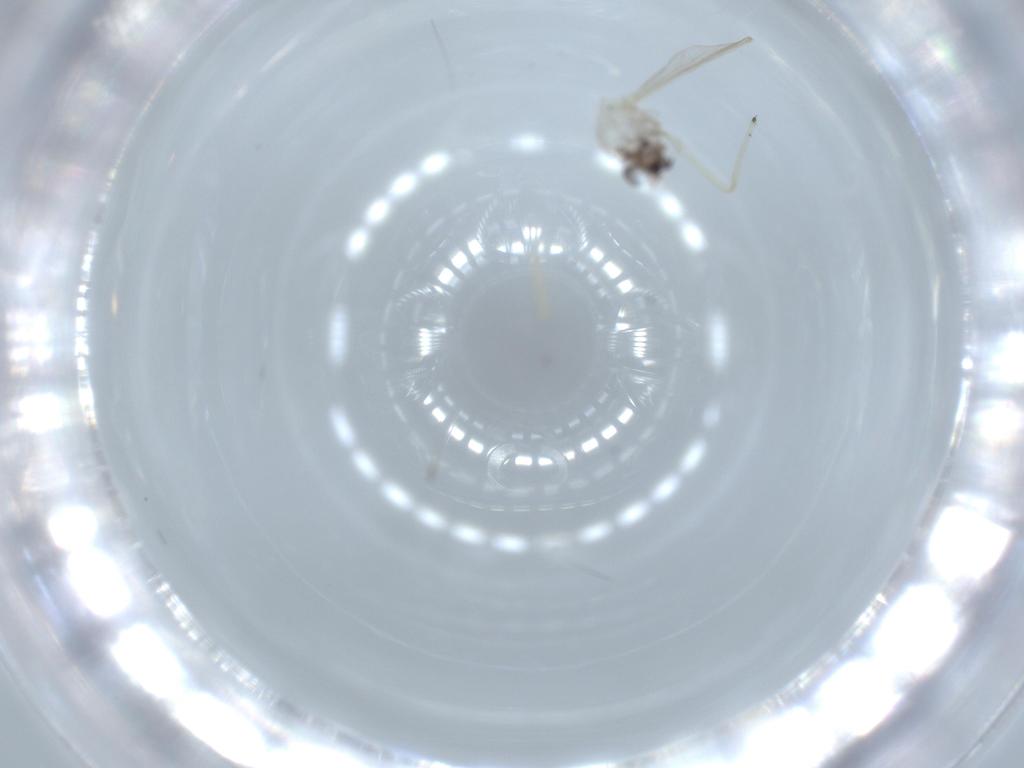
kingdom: Animalia
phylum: Arthropoda
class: Insecta
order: Diptera
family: Chironomidae
